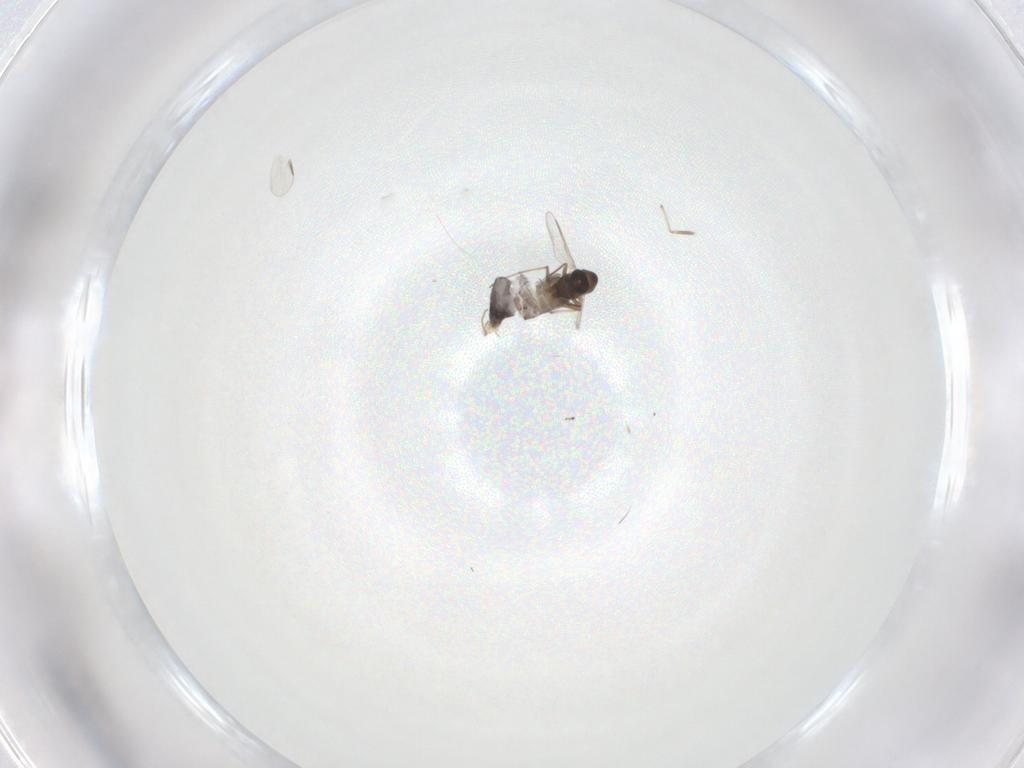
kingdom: Animalia
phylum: Arthropoda
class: Insecta
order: Diptera
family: Chironomidae
